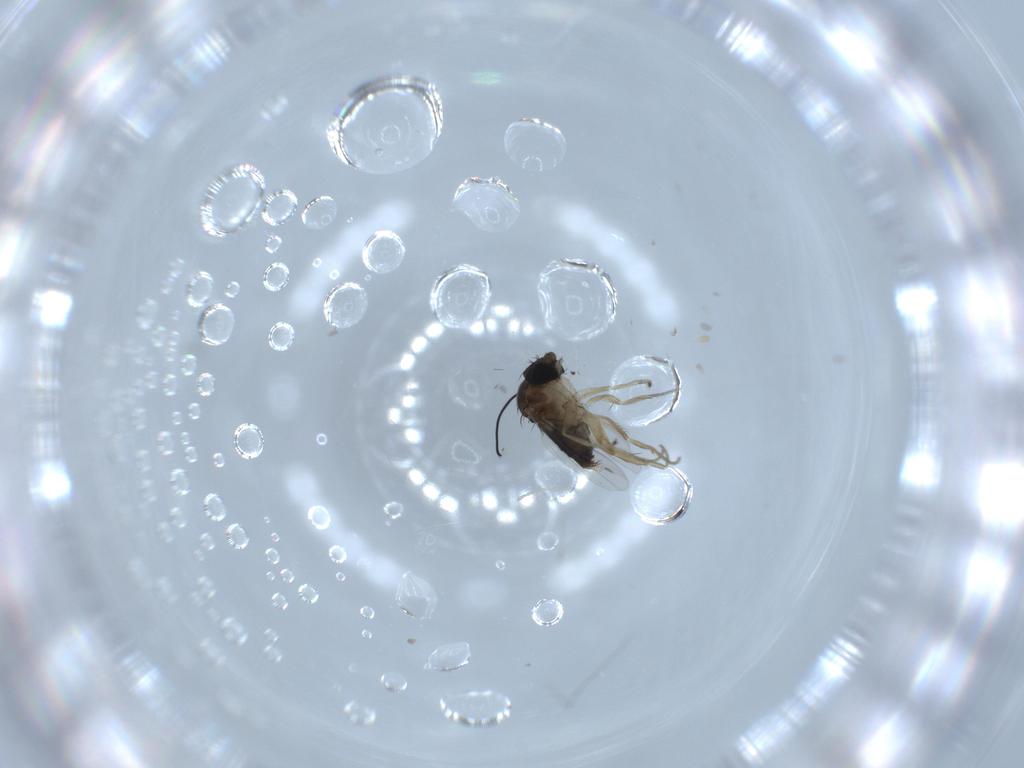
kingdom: Animalia
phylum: Arthropoda
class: Insecta
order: Diptera
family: Phoridae
